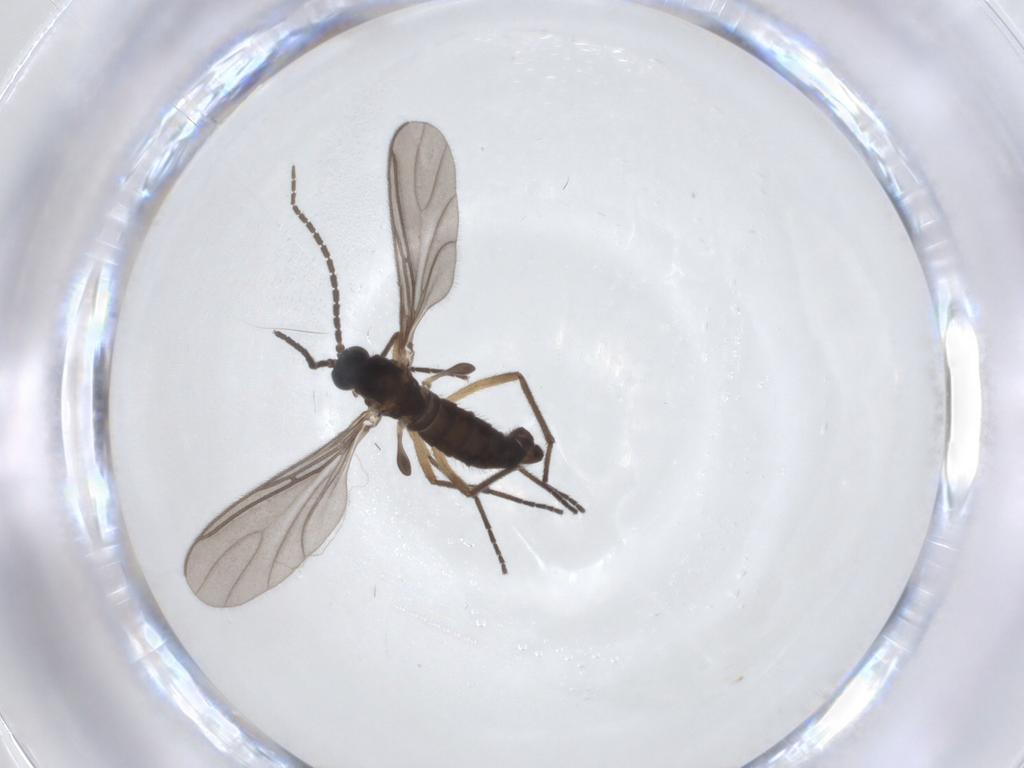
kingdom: Animalia
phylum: Arthropoda
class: Insecta
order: Diptera
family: Sciaridae
